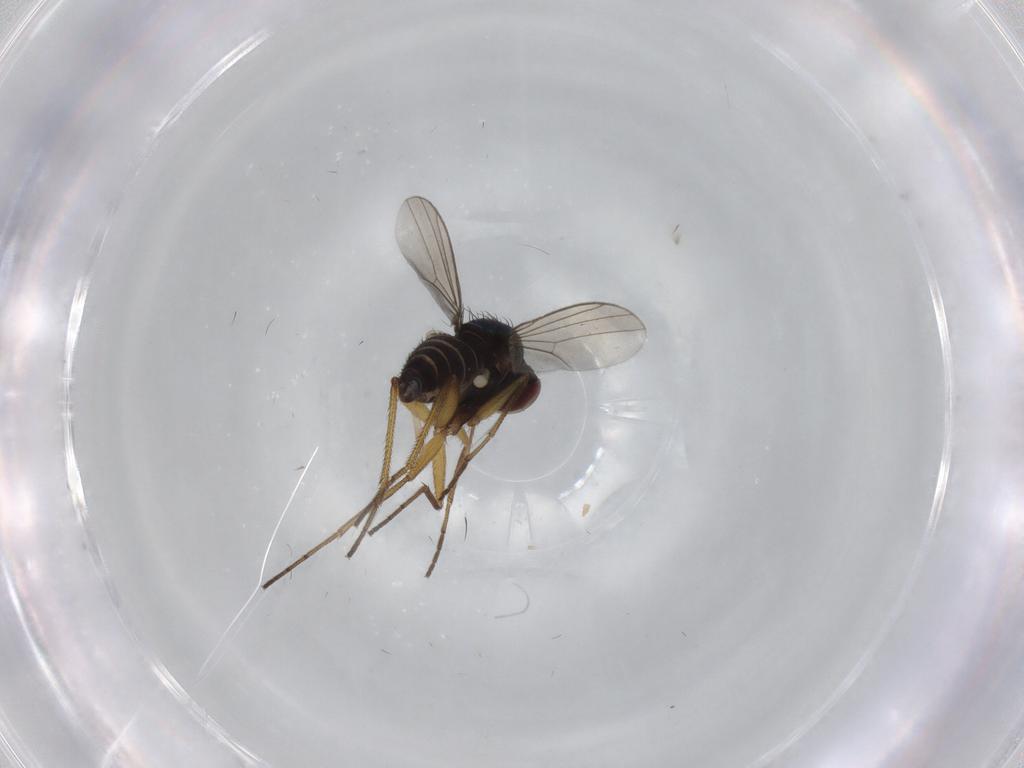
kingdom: Animalia
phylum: Arthropoda
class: Insecta
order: Diptera
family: Dolichopodidae
